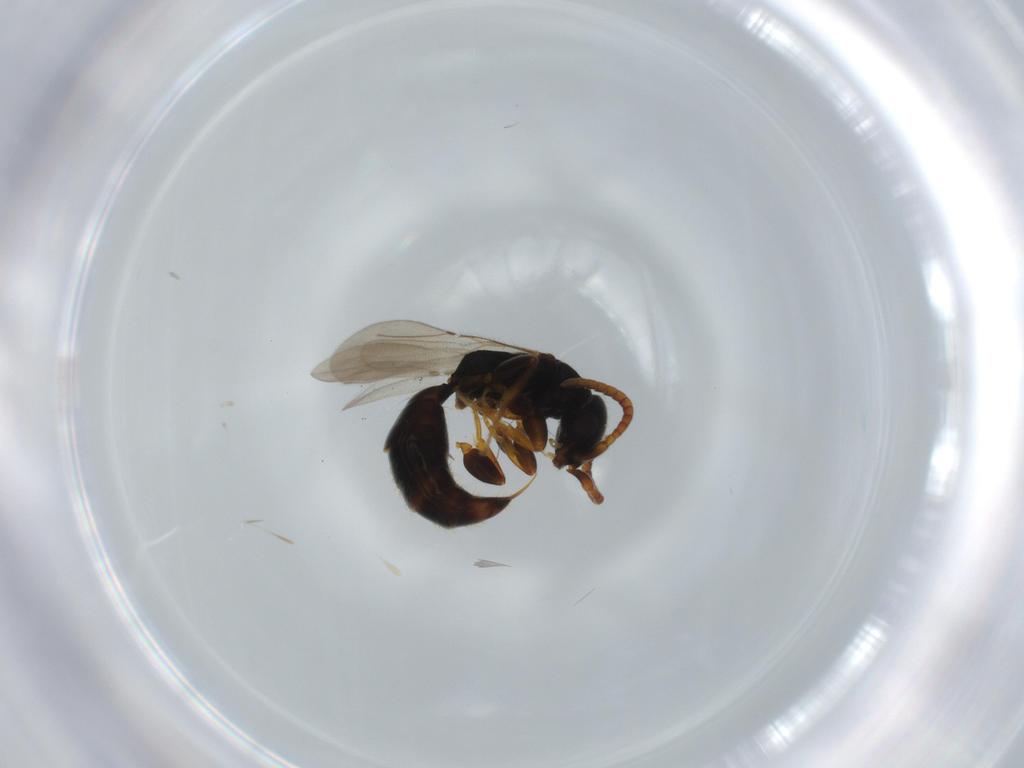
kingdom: Animalia
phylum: Arthropoda
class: Insecta
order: Hymenoptera
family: Bethylidae
